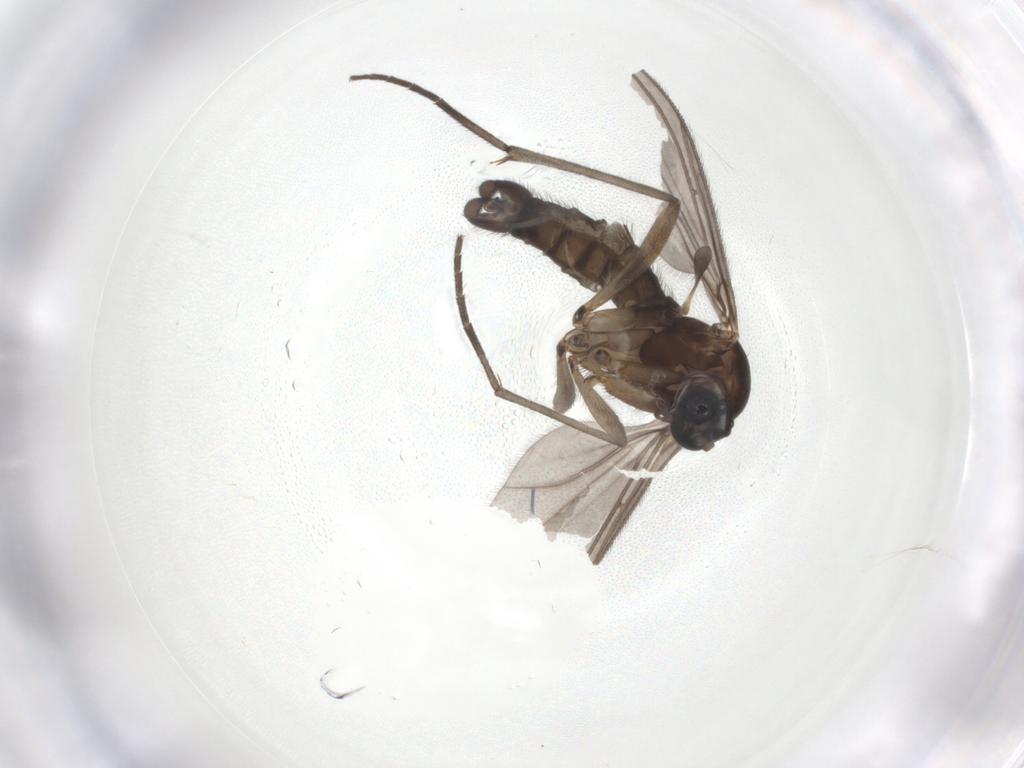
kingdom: Animalia
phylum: Arthropoda
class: Insecta
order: Diptera
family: Sciaridae
